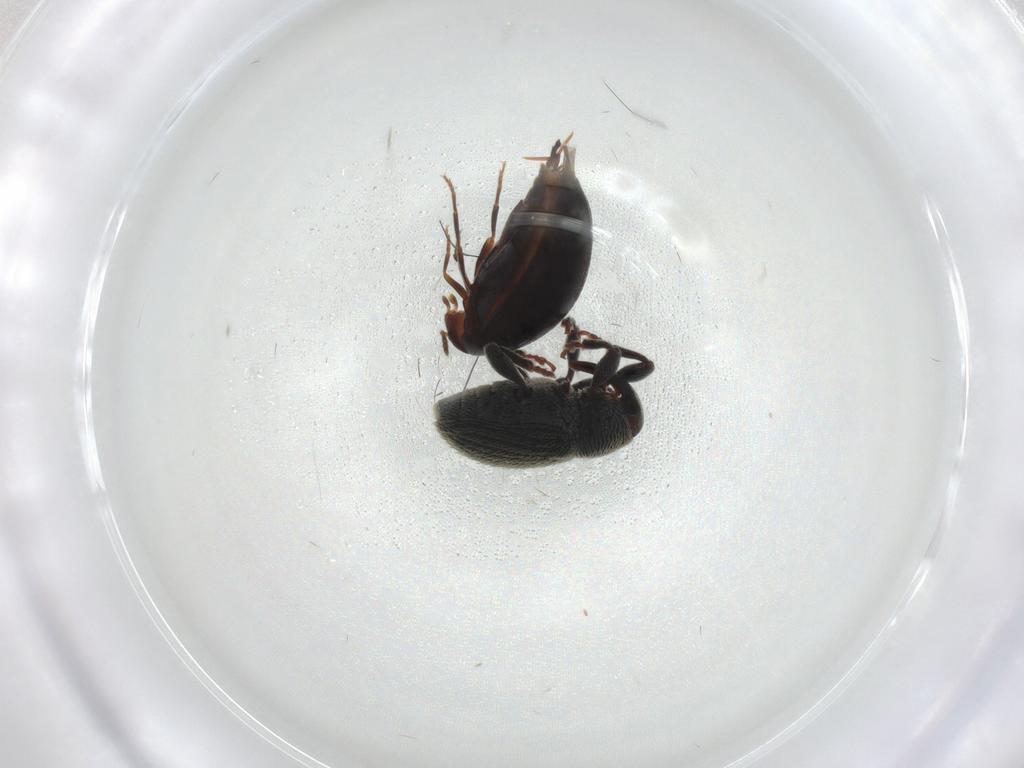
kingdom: Animalia
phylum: Arthropoda
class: Insecta
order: Coleoptera
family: Curculionidae
